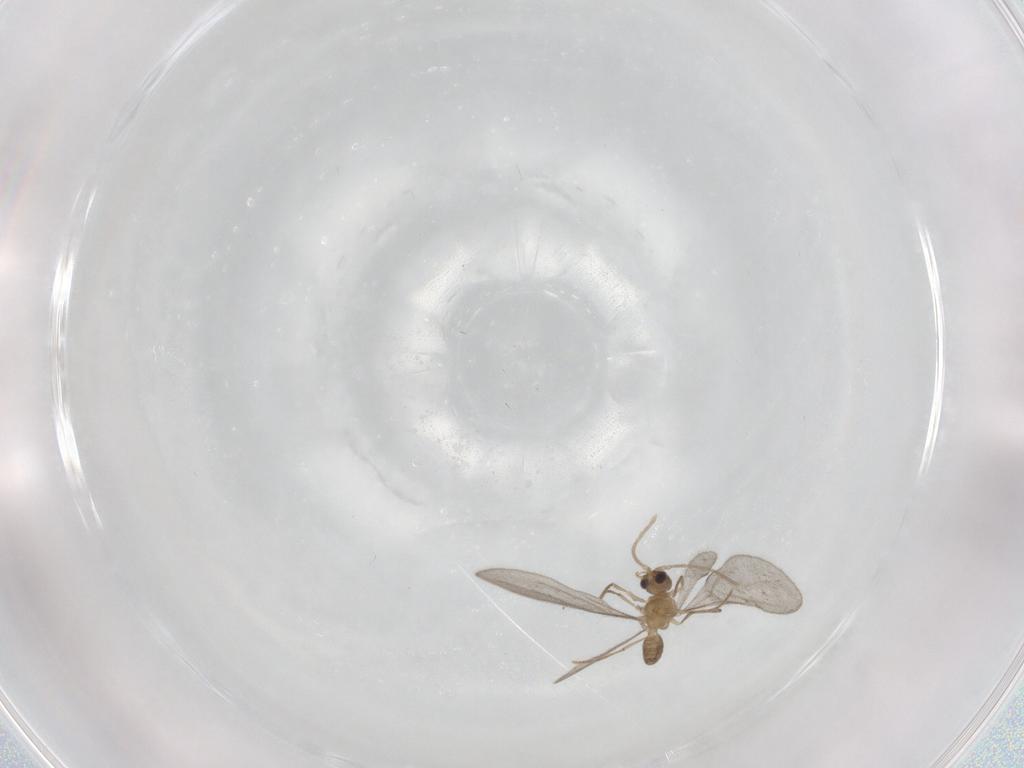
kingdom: Animalia
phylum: Arthropoda
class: Insecta
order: Hymenoptera
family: Formicidae
